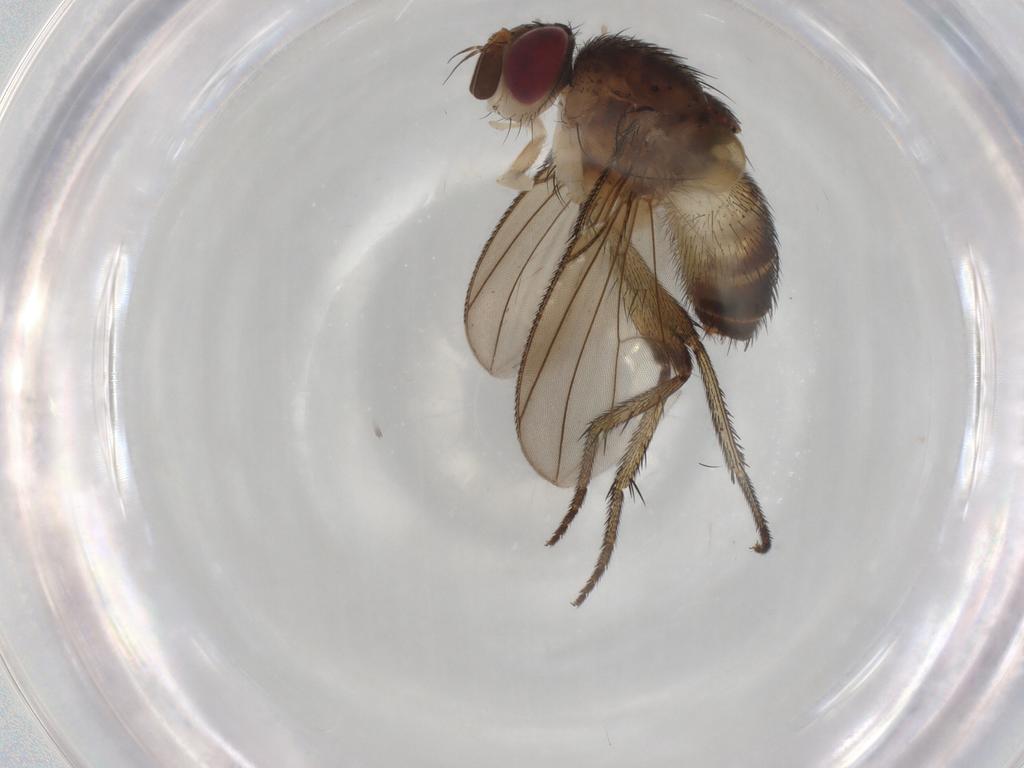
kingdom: Animalia
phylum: Arthropoda
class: Insecta
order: Diptera
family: Tachinidae
